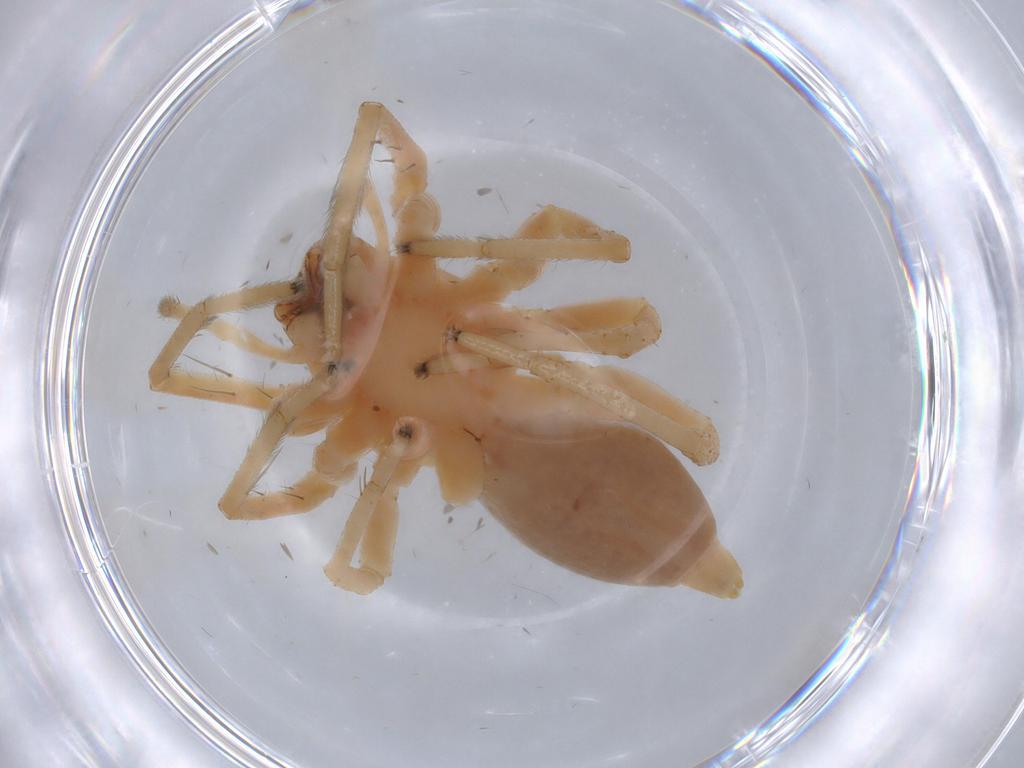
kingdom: Animalia
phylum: Arthropoda
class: Arachnida
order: Araneae
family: Anyphaenidae
